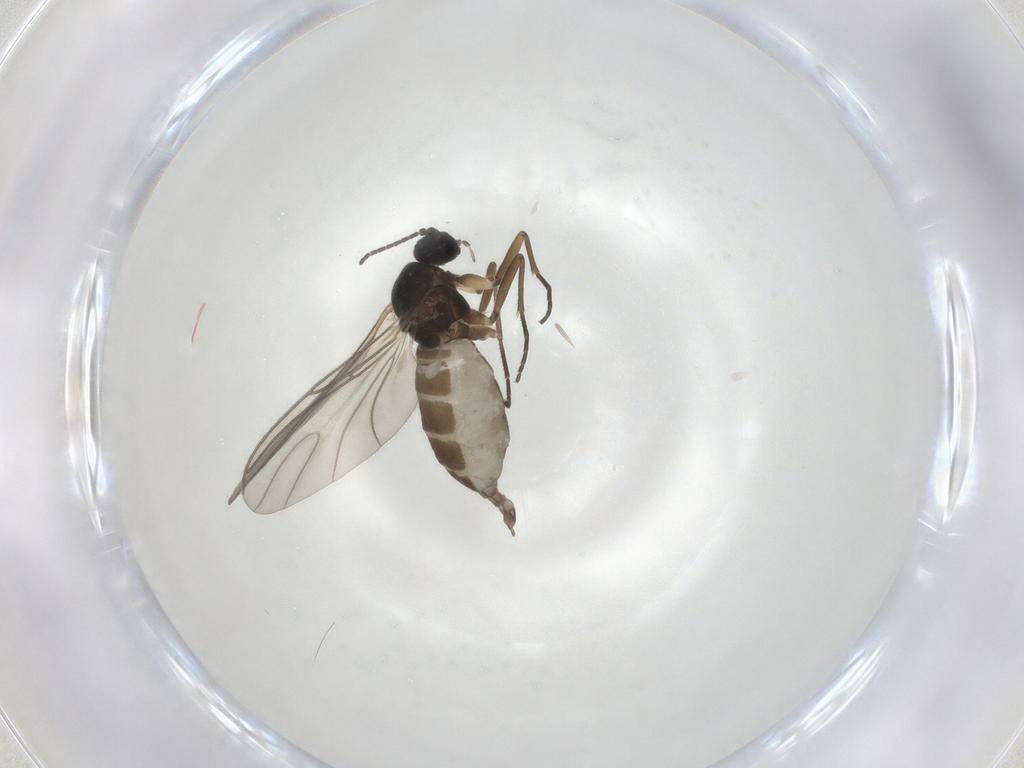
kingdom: Animalia
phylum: Arthropoda
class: Insecta
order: Diptera
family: Sciaridae
